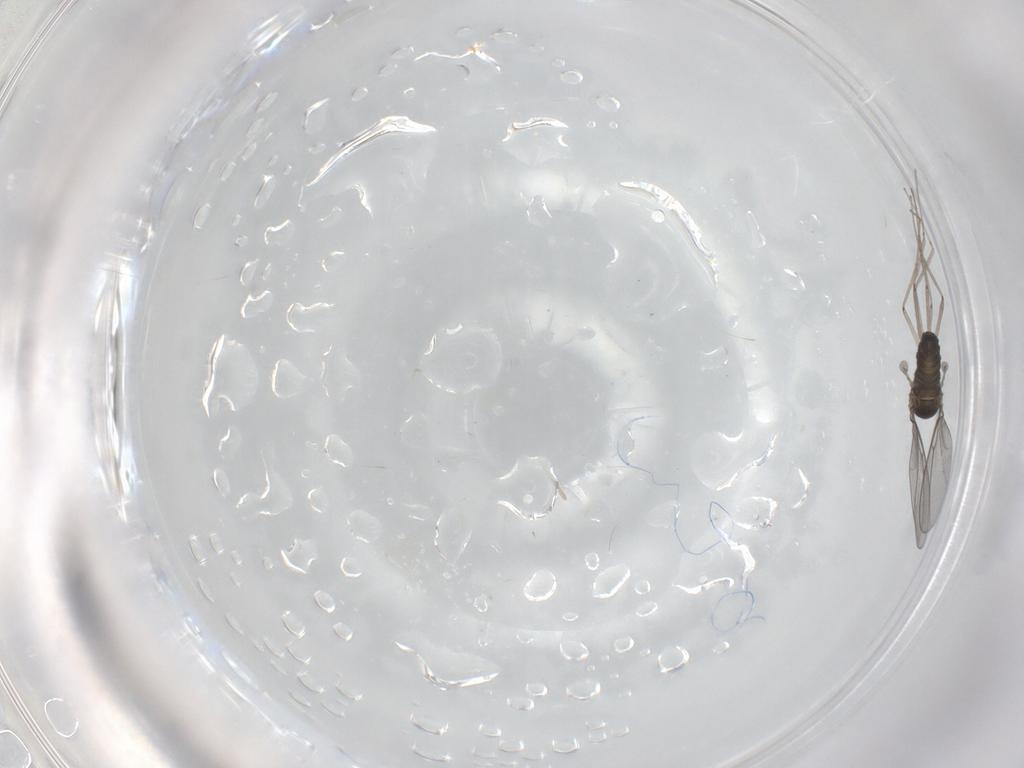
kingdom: Animalia
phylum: Arthropoda
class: Insecta
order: Diptera
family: Cecidomyiidae
